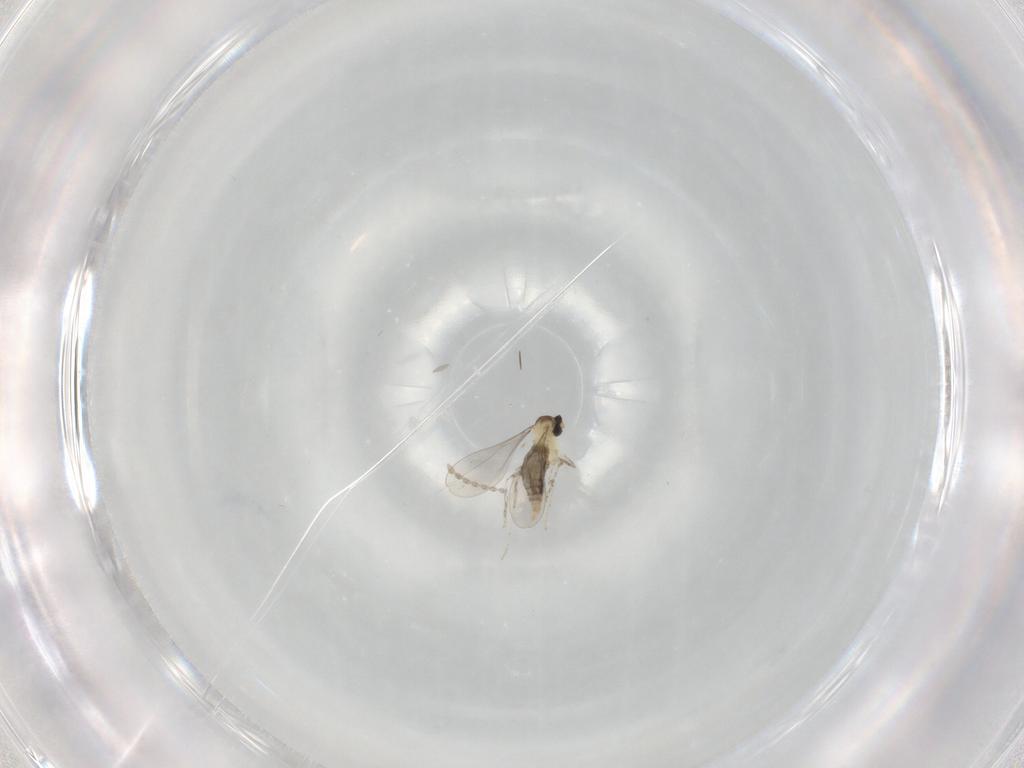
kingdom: Animalia
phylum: Arthropoda
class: Insecta
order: Diptera
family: Cecidomyiidae
